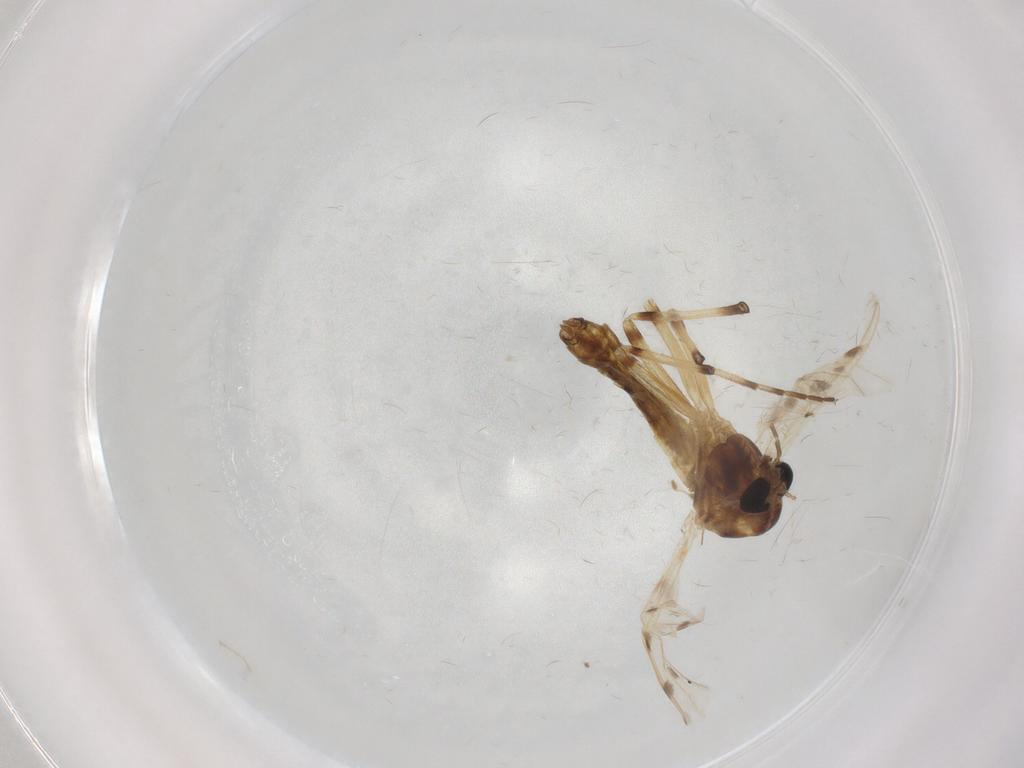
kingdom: Animalia
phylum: Arthropoda
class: Insecta
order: Diptera
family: Chironomidae
